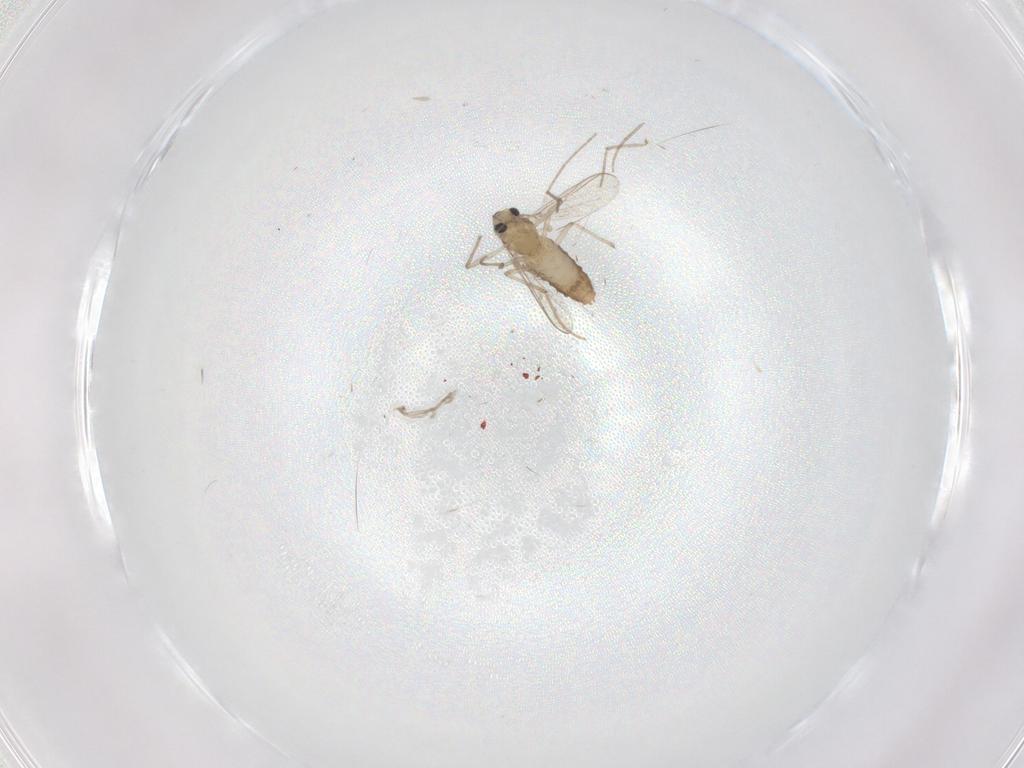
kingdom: Animalia
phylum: Arthropoda
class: Insecta
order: Diptera
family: Chironomidae
